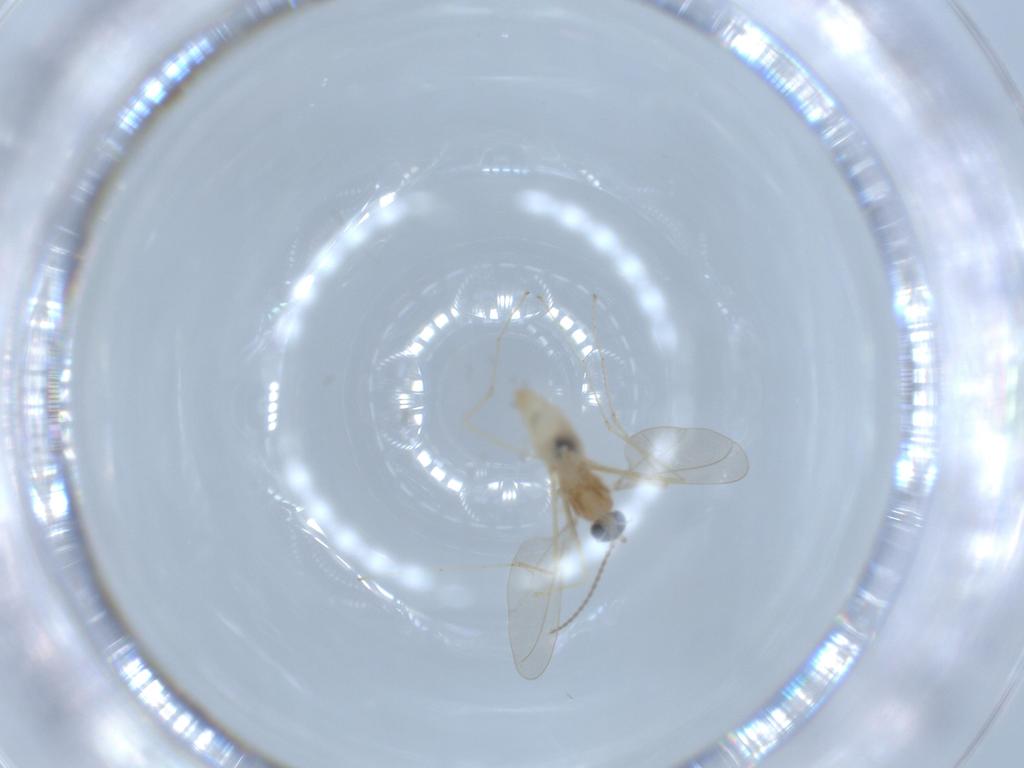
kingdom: Animalia
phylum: Arthropoda
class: Insecta
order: Diptera
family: Cecidomyiidae
